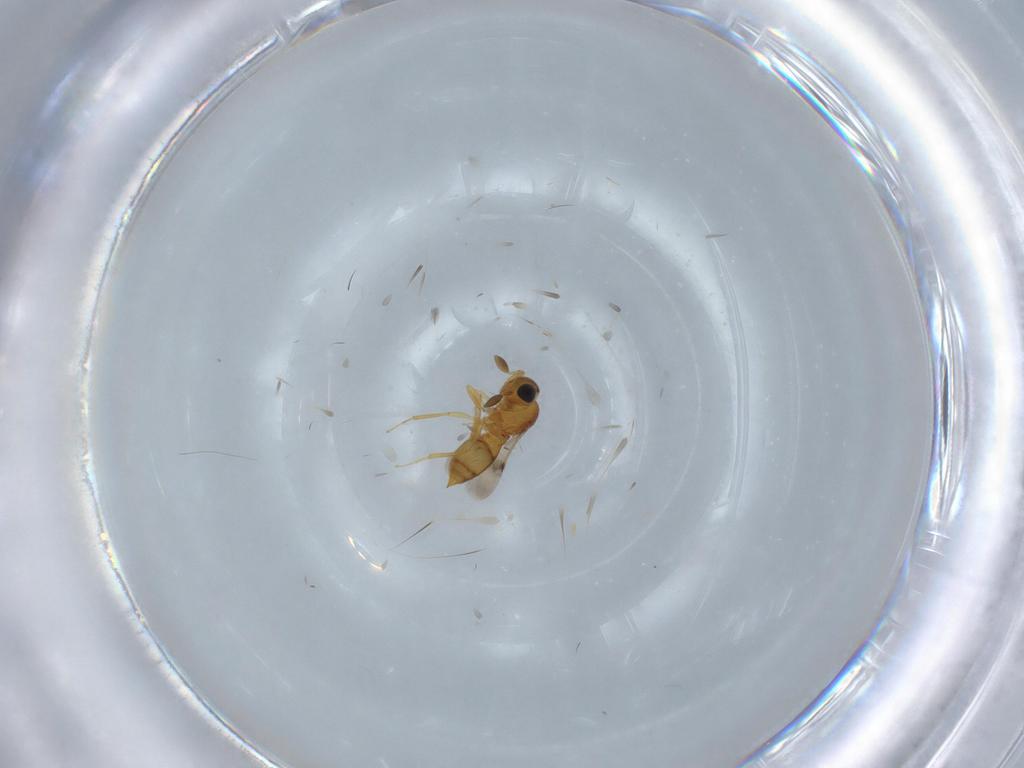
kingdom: Animalia
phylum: Arthropoda
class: Insecta
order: Hymenoptera
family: Scelionidae
